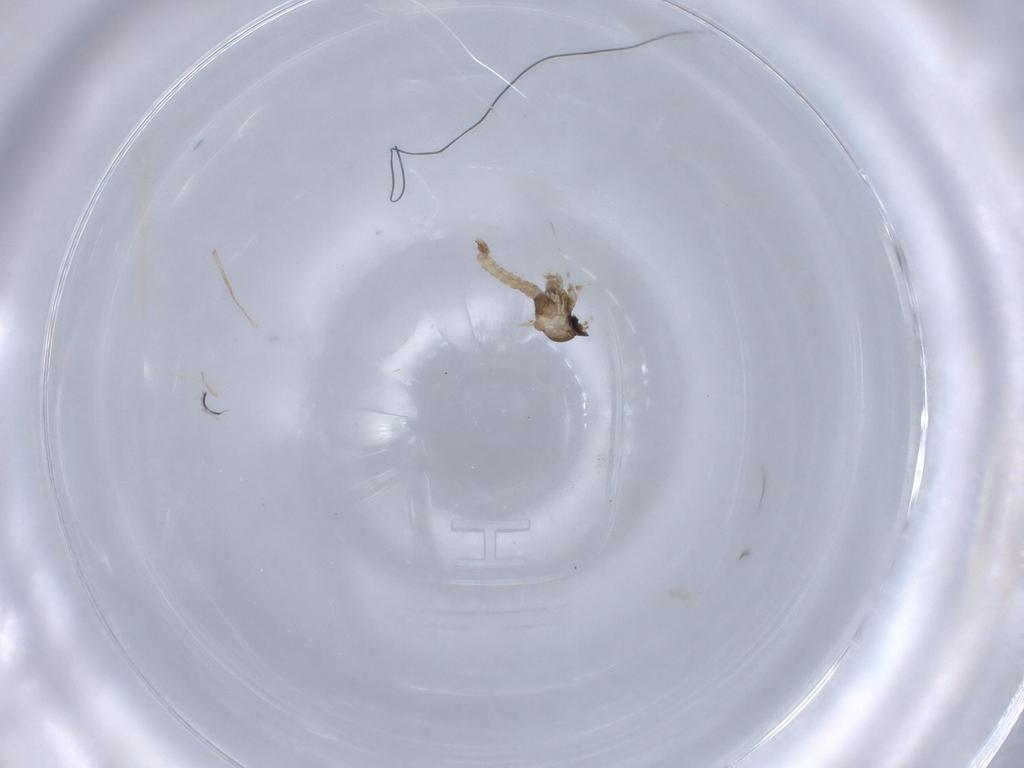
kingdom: Animalia
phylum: Arthropoda
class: Insecta
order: Diptera
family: Cecidomyiidae
